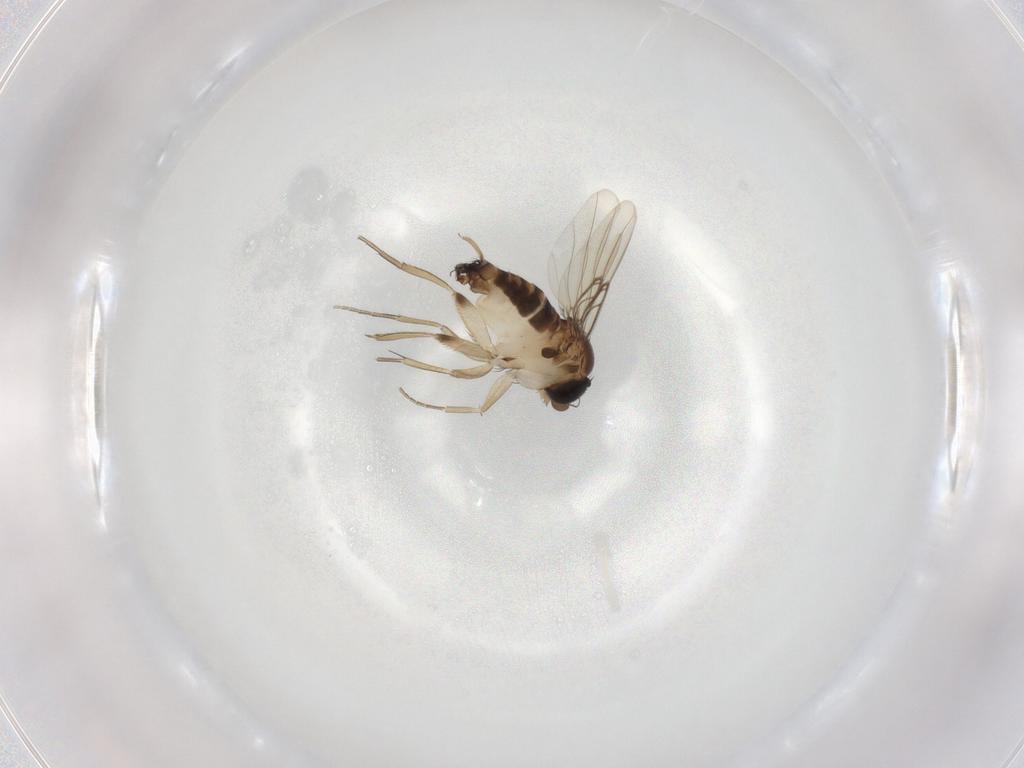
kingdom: Animalia
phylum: Arthropoda
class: Insecta
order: Diptera
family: Phoridae
